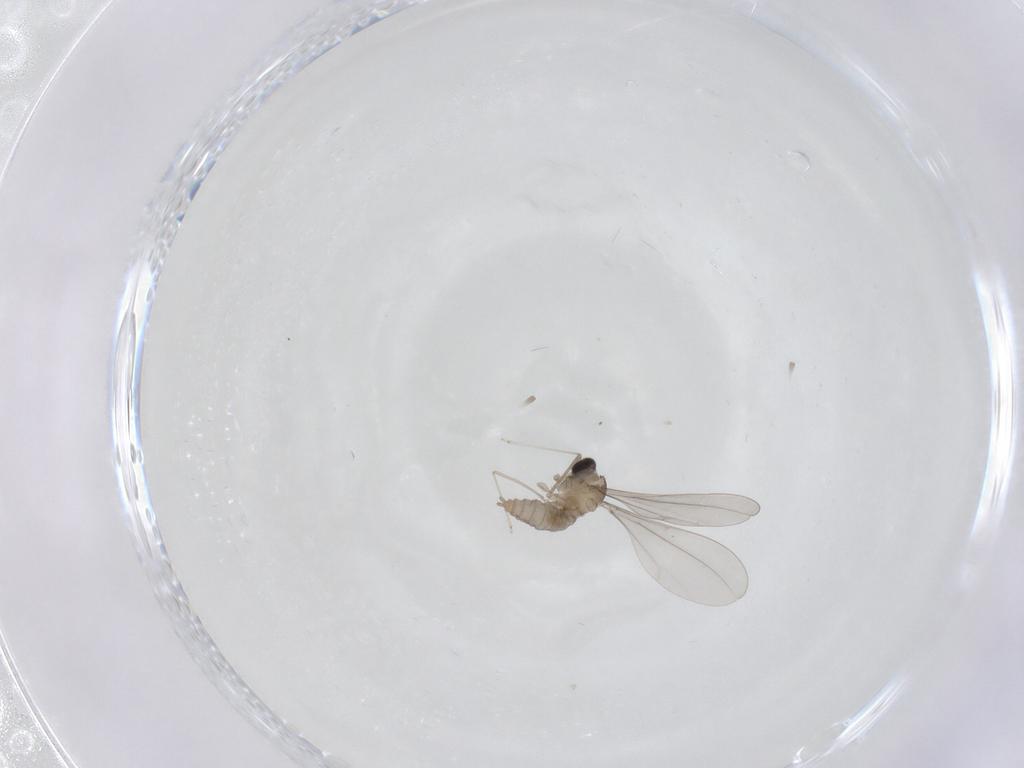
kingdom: Animalia
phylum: Arthropoda
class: Insecta
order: Diptera
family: Cecidomyiidae
